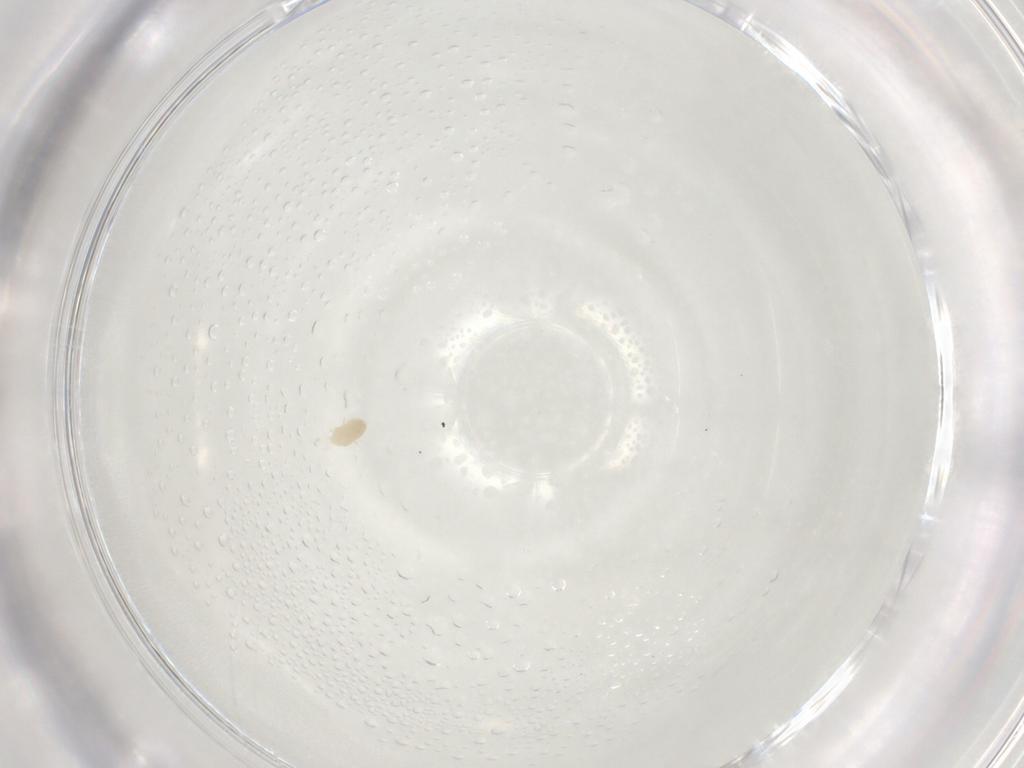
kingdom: Animalia
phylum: Arthropoda
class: Arachnida
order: Trombidiformes
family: Eupodidae
